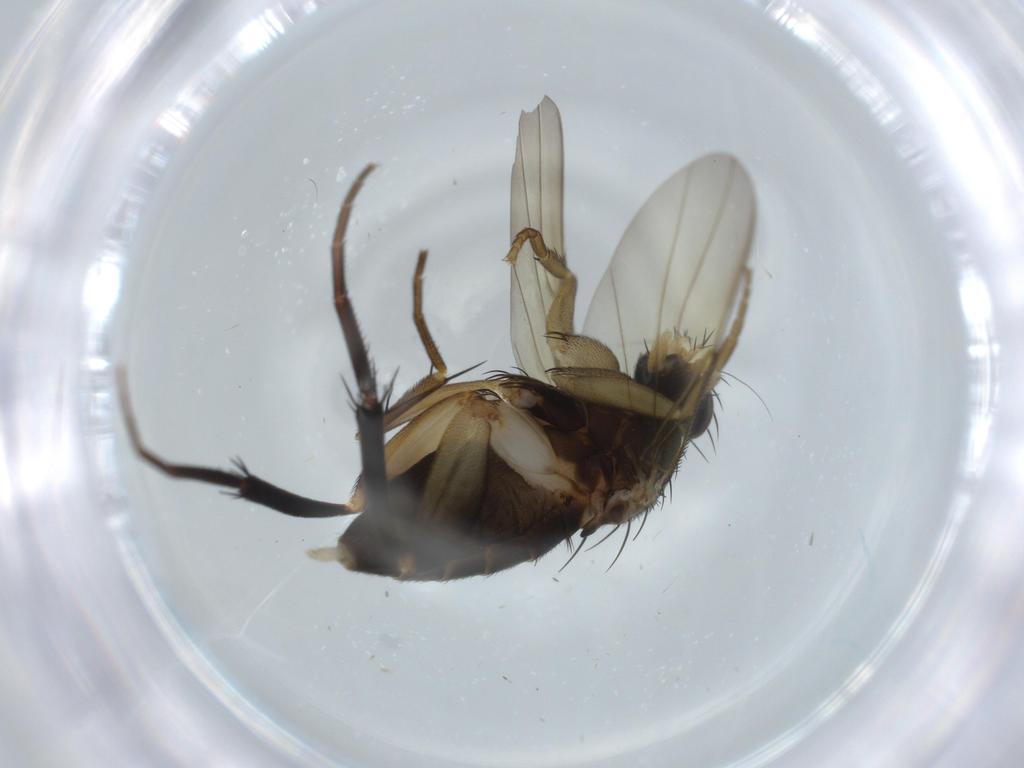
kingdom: Animalia
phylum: Arthropoda
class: Insecta
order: Diptera
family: Phoridae
